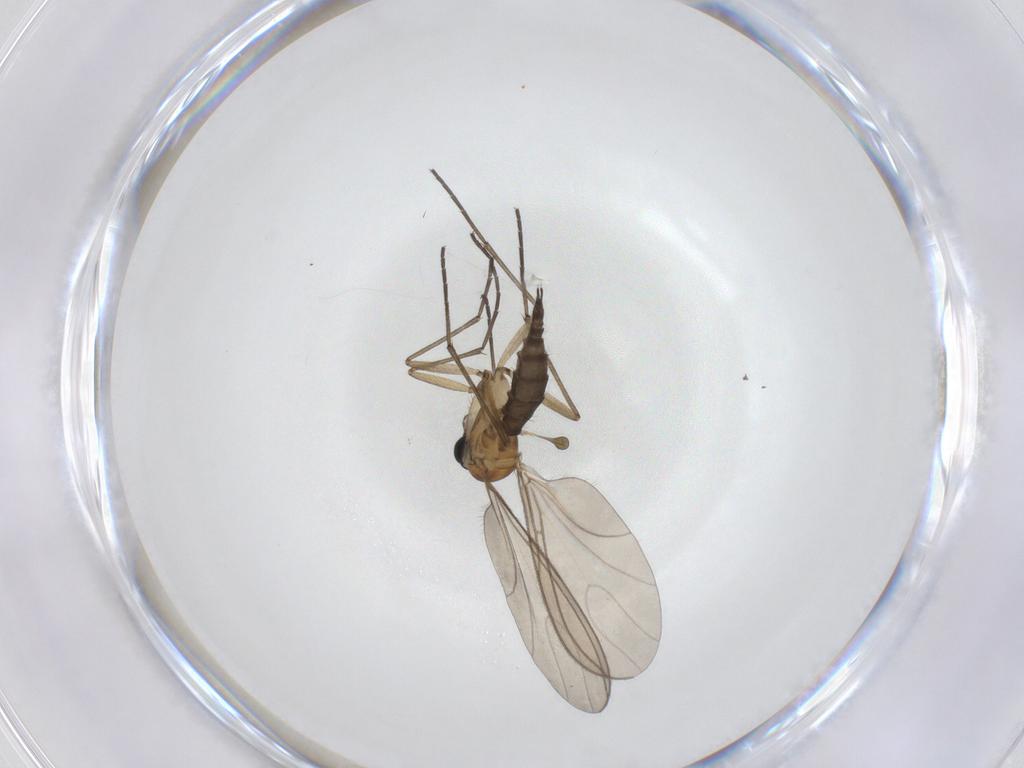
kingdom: Animalia
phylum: Arthropoda
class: Insecta
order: Diptera
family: Sciaridae
